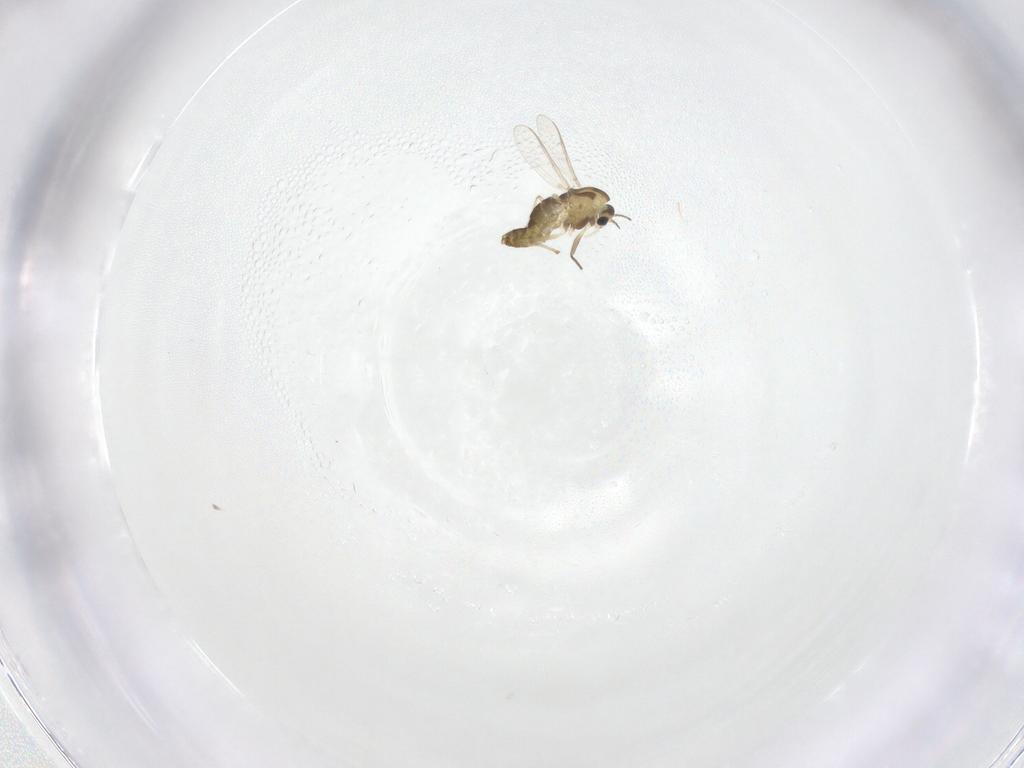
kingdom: Animalia
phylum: Arthropoda
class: Insecta
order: Diptera
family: Chironomidae
